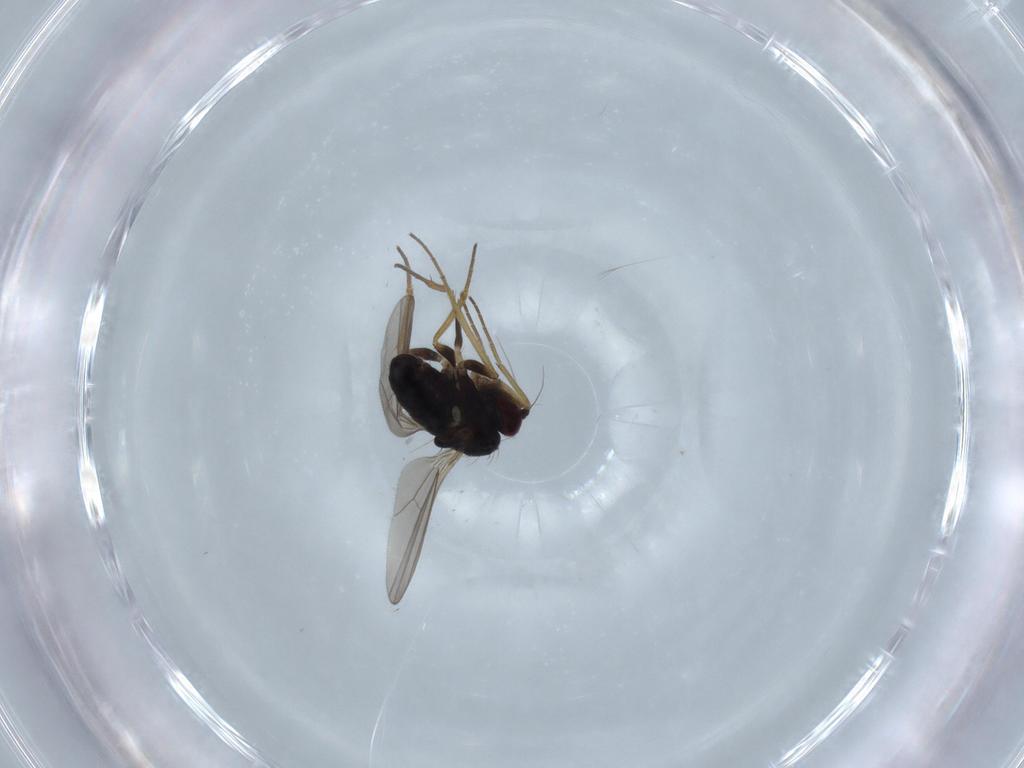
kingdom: Animalia
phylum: Arthropoda
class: Insecta
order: Diptera
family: Dolichopodidae
